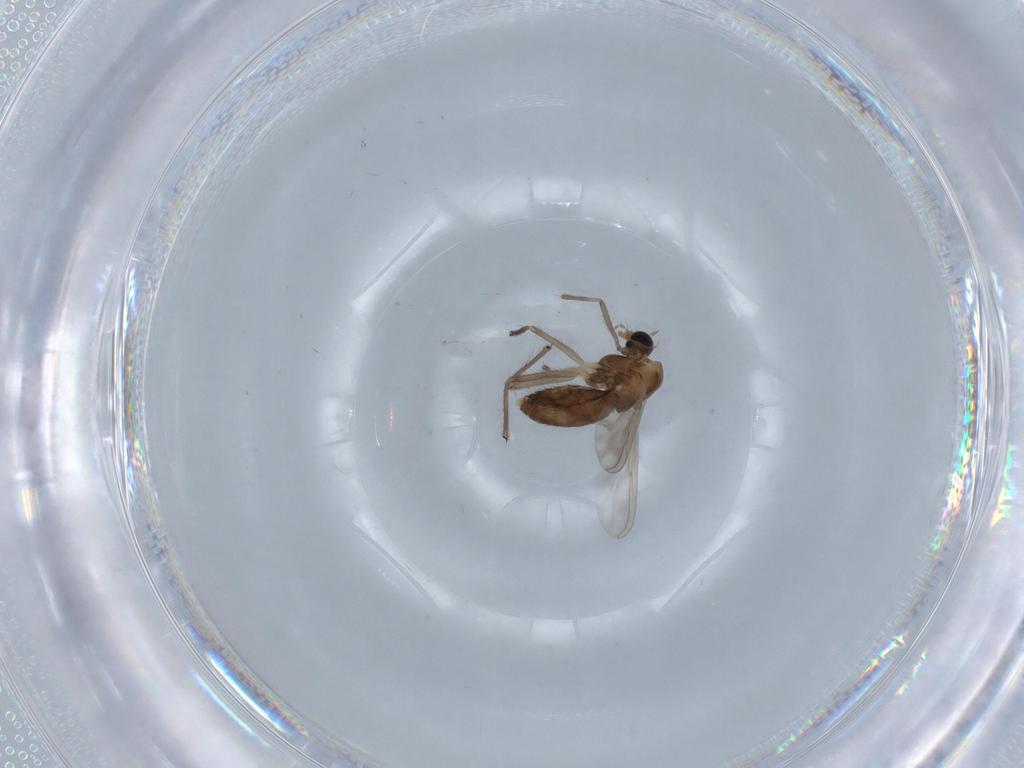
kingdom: Animalia
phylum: Arthropoda
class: Insecta
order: Diptera
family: Chironomidae
